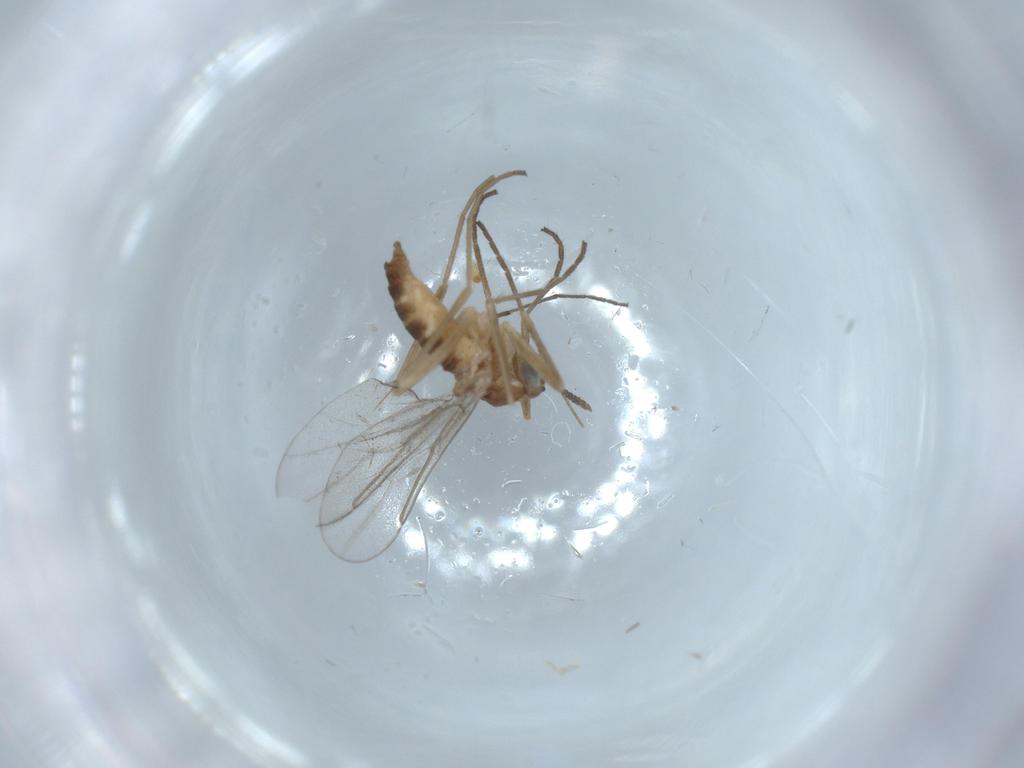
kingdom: Animalia
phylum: Arthropoda
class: Insecta
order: Diptera
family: Cecidomyiidae
